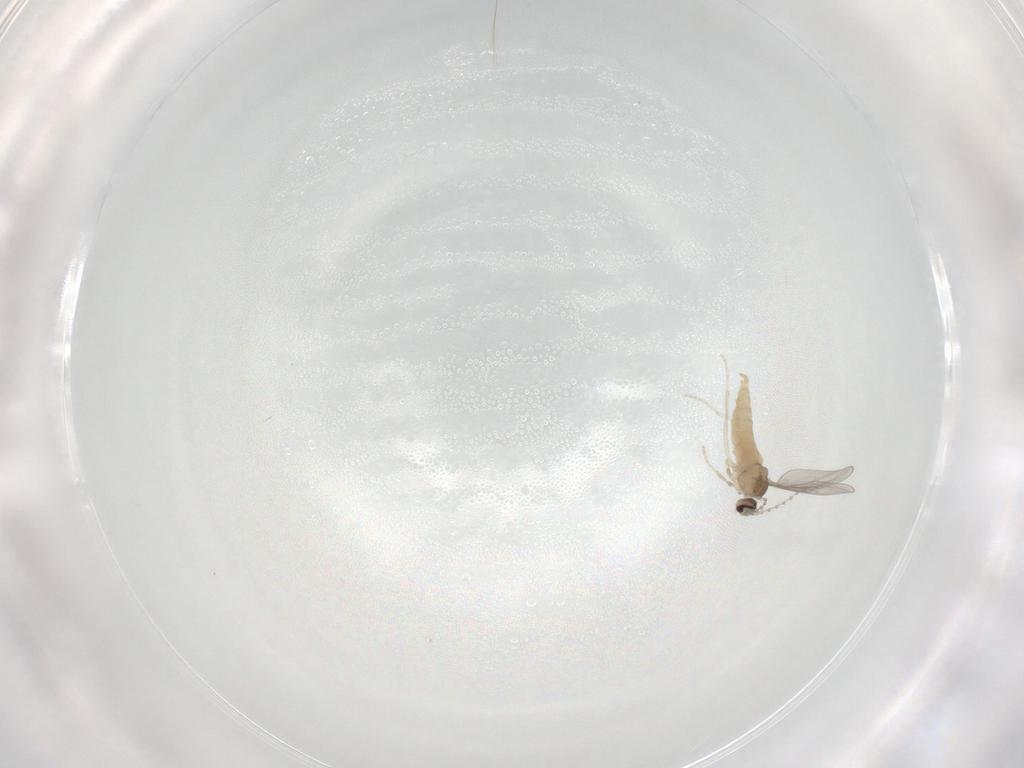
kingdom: Animalia
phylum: Arthropoda
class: Insecta
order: Diptera
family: Cecidomyiidae
